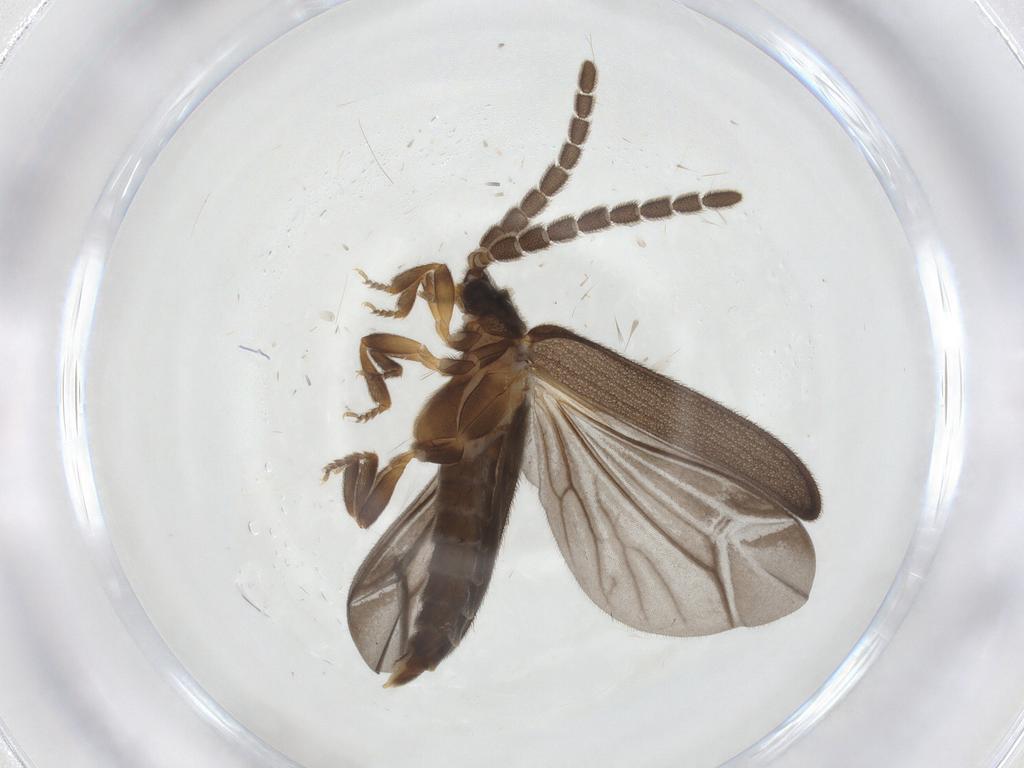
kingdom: Animalia
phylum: Arthropoda
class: Insecta
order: Coleoptera
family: Lycidae
